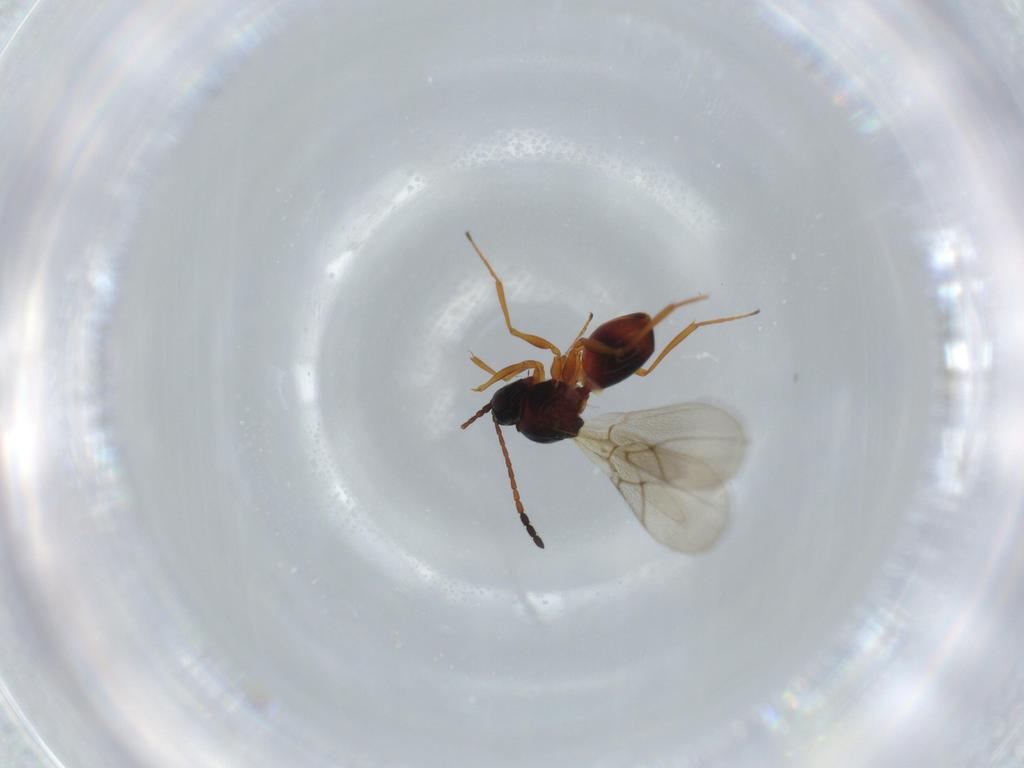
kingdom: Animalia
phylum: Arthropoda
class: Insecta
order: Hymenoptera
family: Figitidae
